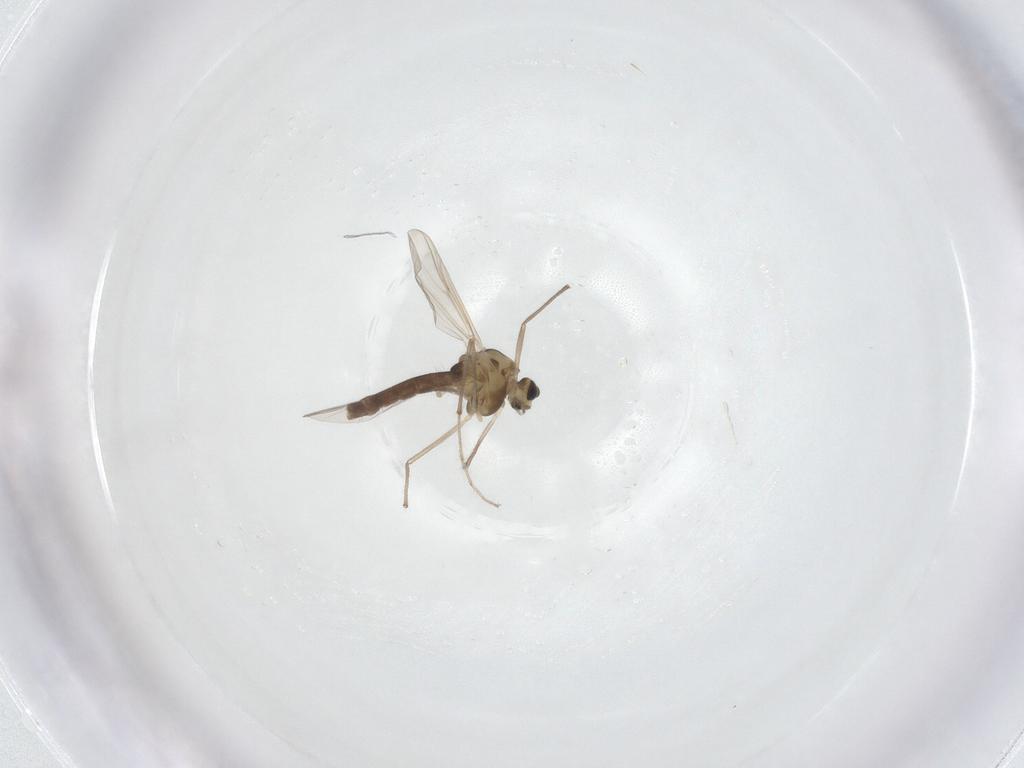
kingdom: Animalia
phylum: Arthropoda
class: Insecta
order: Diptera
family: Chironomidae
